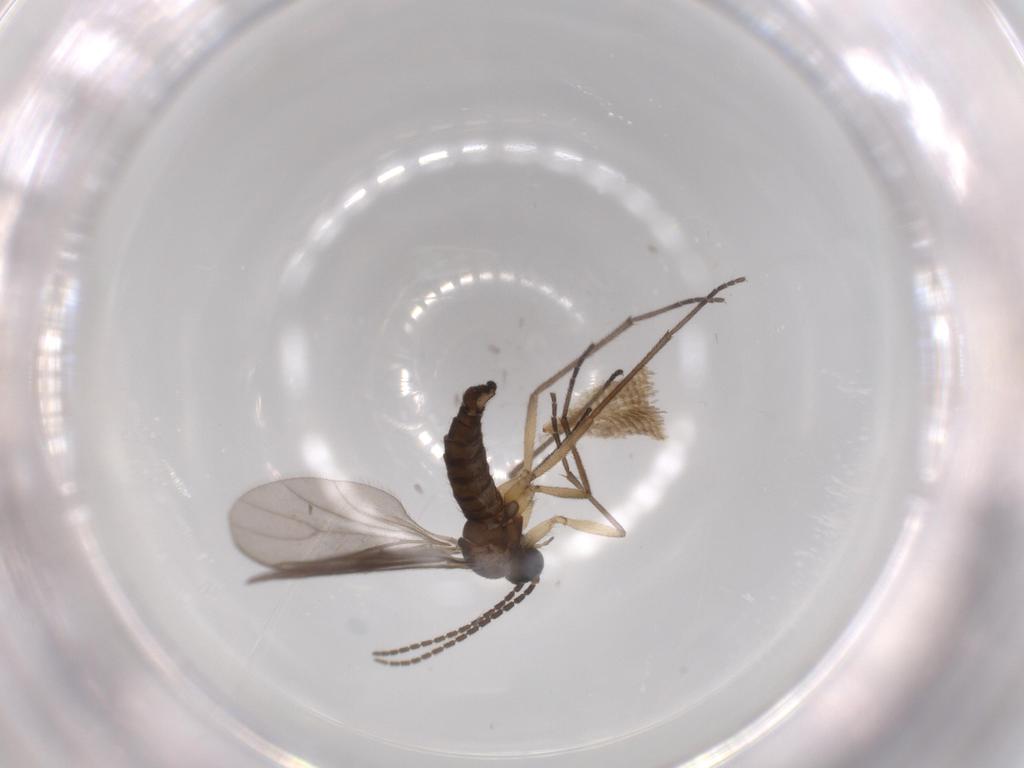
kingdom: Animalia
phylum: Arthropoda
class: Insecta
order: Diptera
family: Sciaridae
